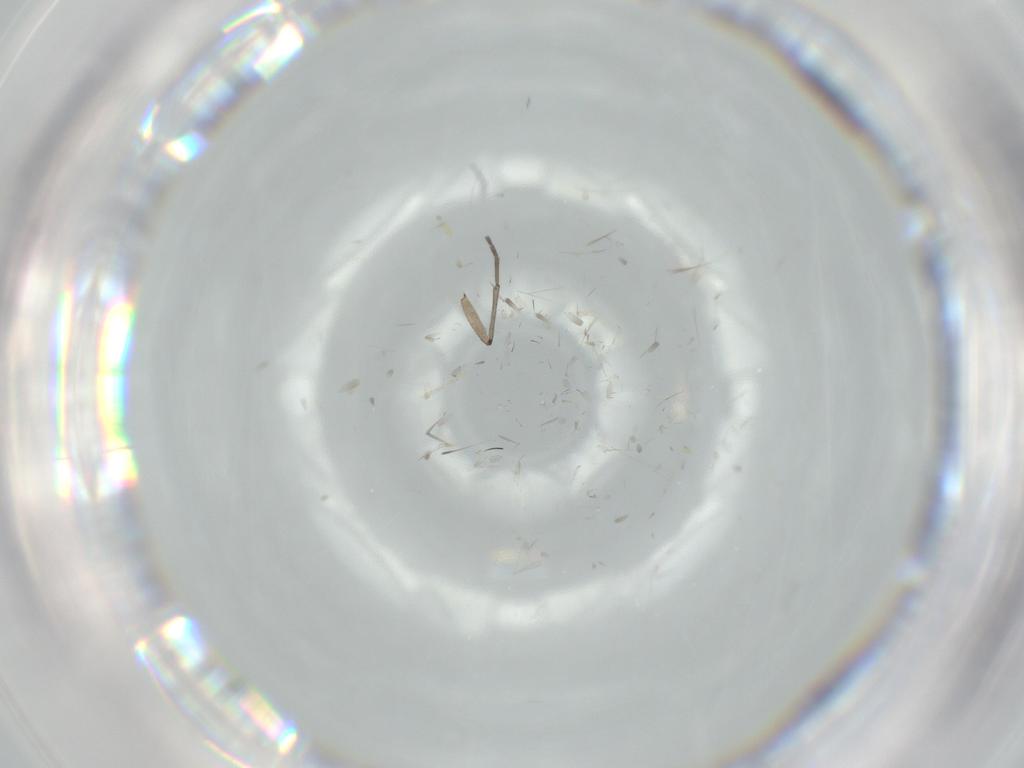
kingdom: Animalia
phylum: Arthropoda
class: Insecta
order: Diptera
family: Sciaridae
